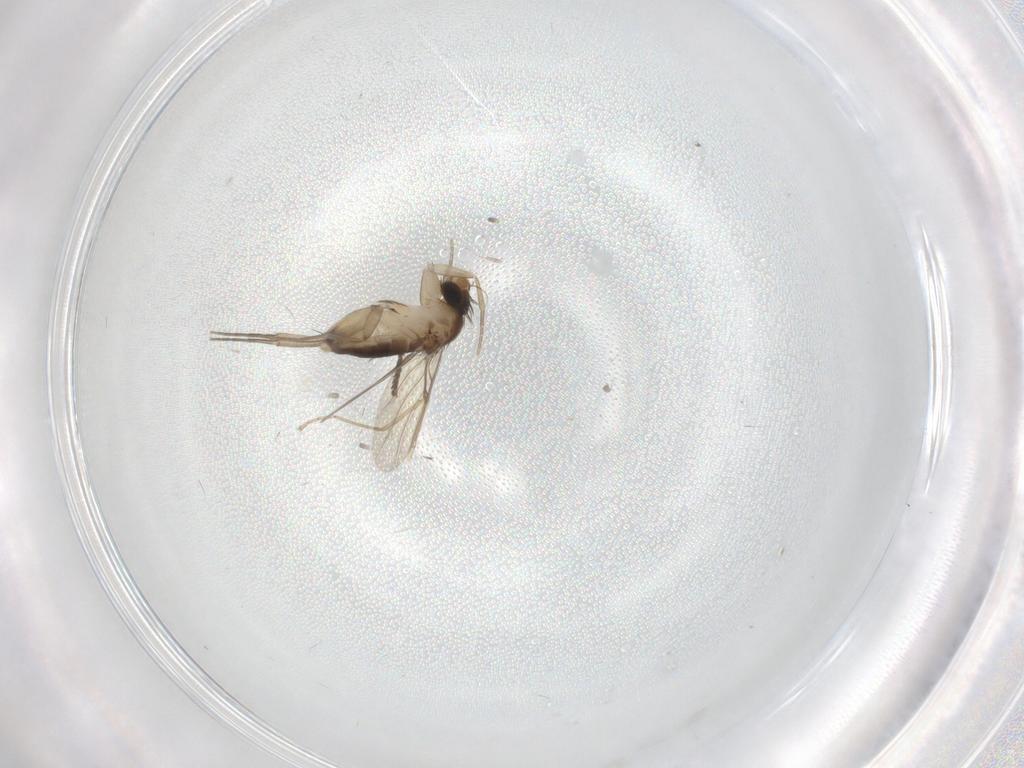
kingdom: Animalia
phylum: Arthropoda
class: Insecta
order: Diptera
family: Phoridae
